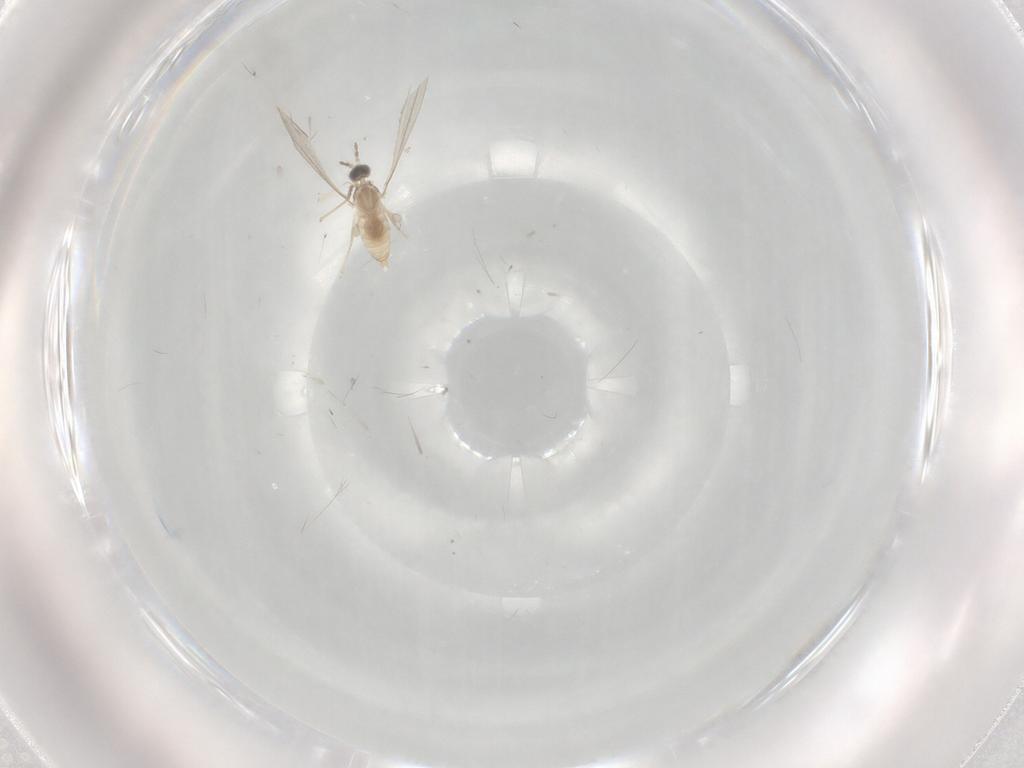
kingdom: Animalia
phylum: Arthropoda
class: Insecta
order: Diptera
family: Cecidomyiidae
